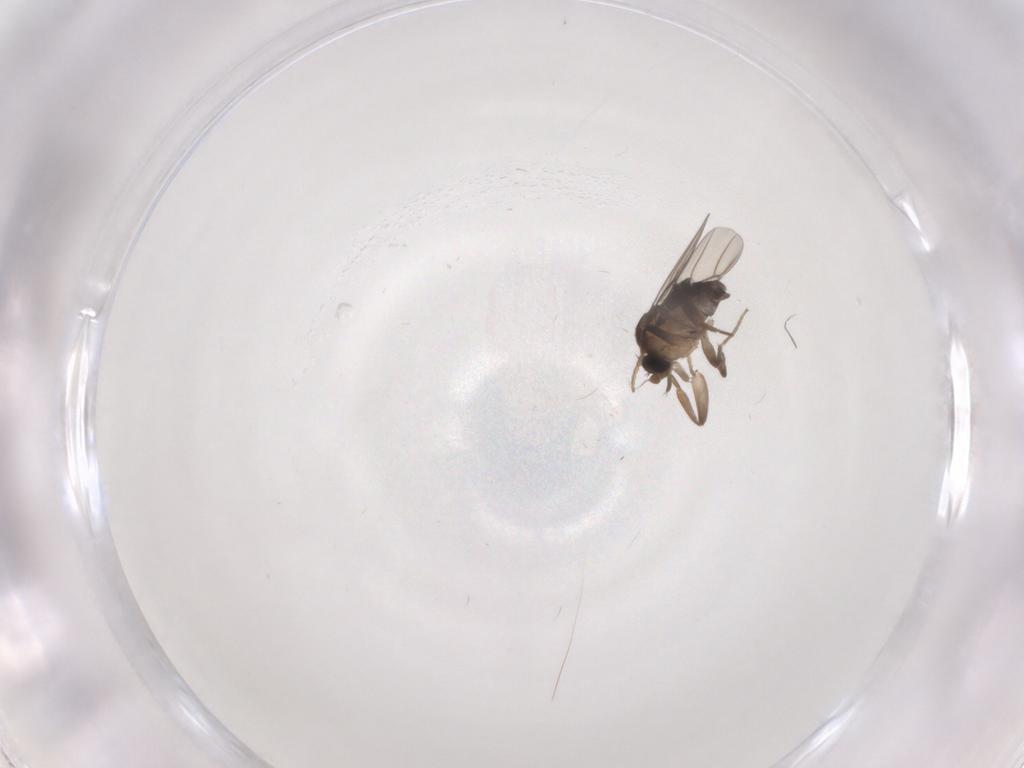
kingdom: Animalia
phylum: Arthropoda
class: Insecta
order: Diptera
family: Phoridae
